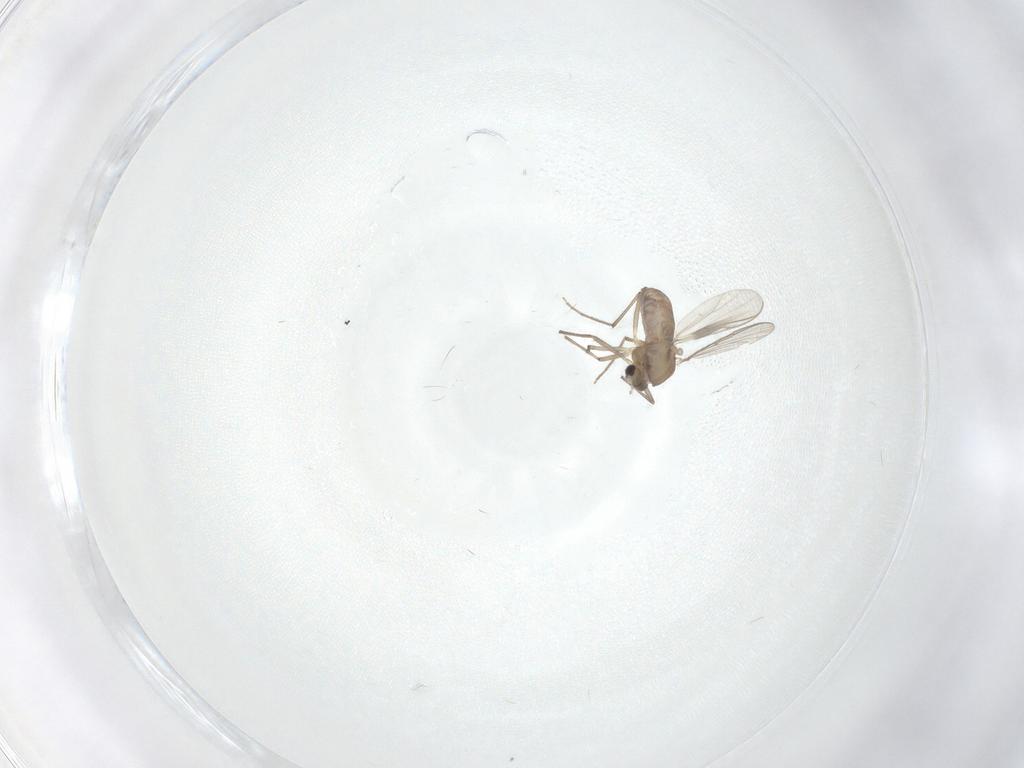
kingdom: Animalia
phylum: Arthropoda
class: Insecta
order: Diptera
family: Chironomidae
